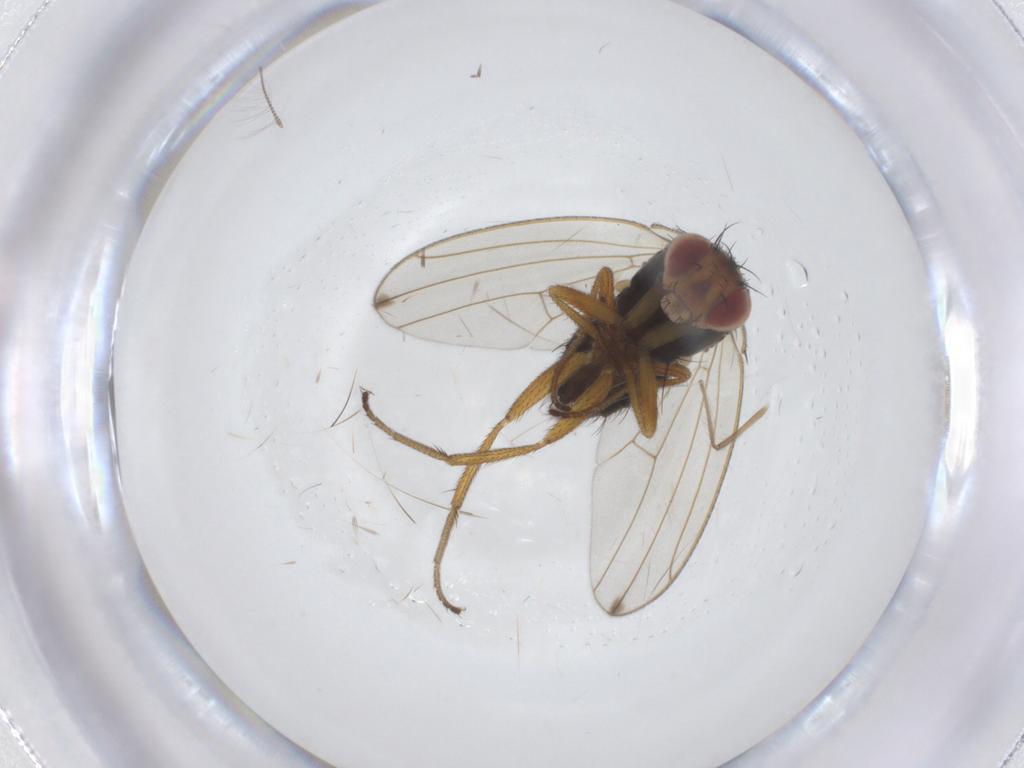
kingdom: Animalia
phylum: Arthropoda
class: Insecta
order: Diptera
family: Drosophilidae
